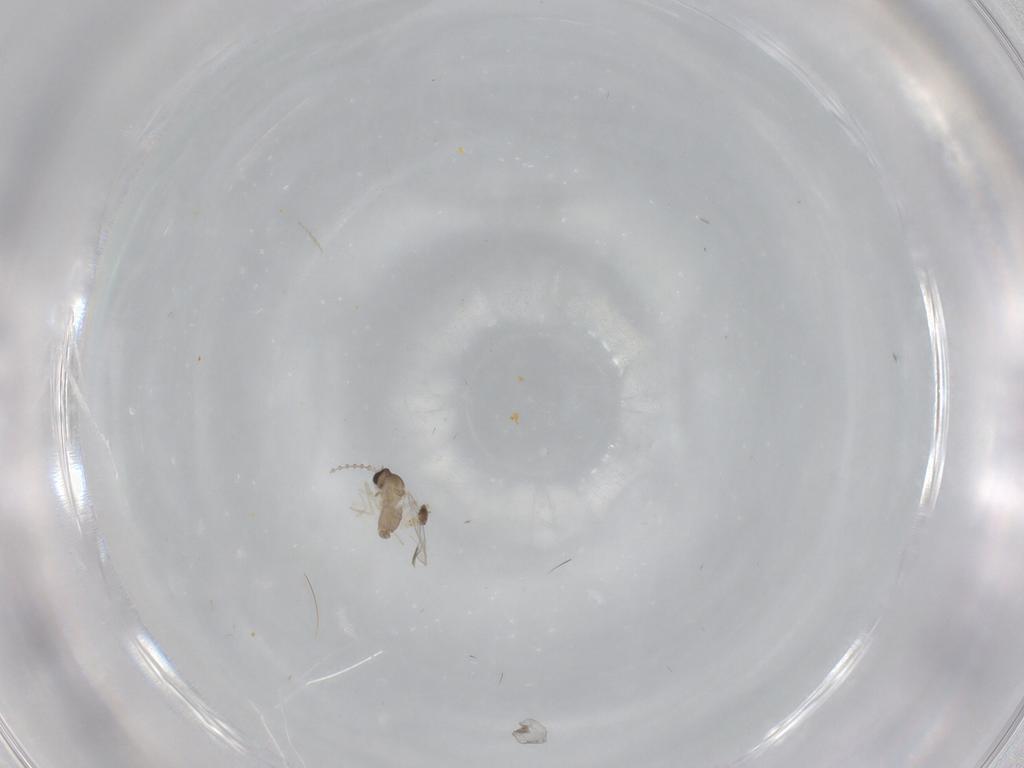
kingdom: Animalia
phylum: Arthropoda
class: Insecta
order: Diptera
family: Cecidomyiidae
